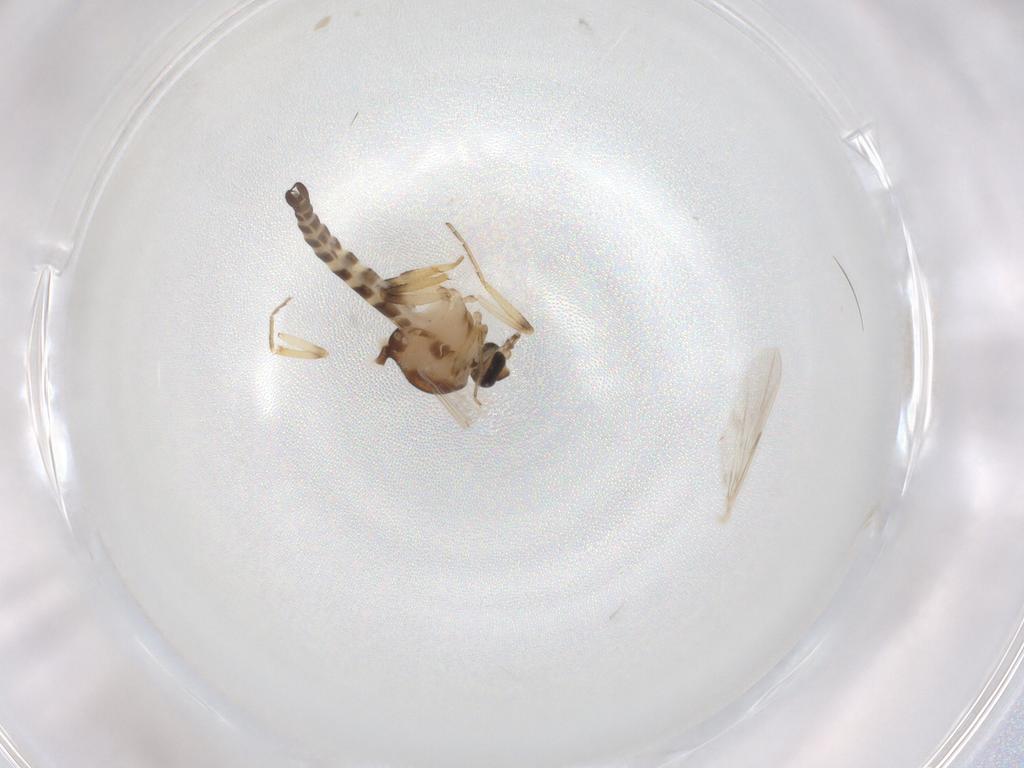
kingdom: Animalia
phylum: Arthropoda
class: Insecta
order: Diptera
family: Ceratopogonidae
